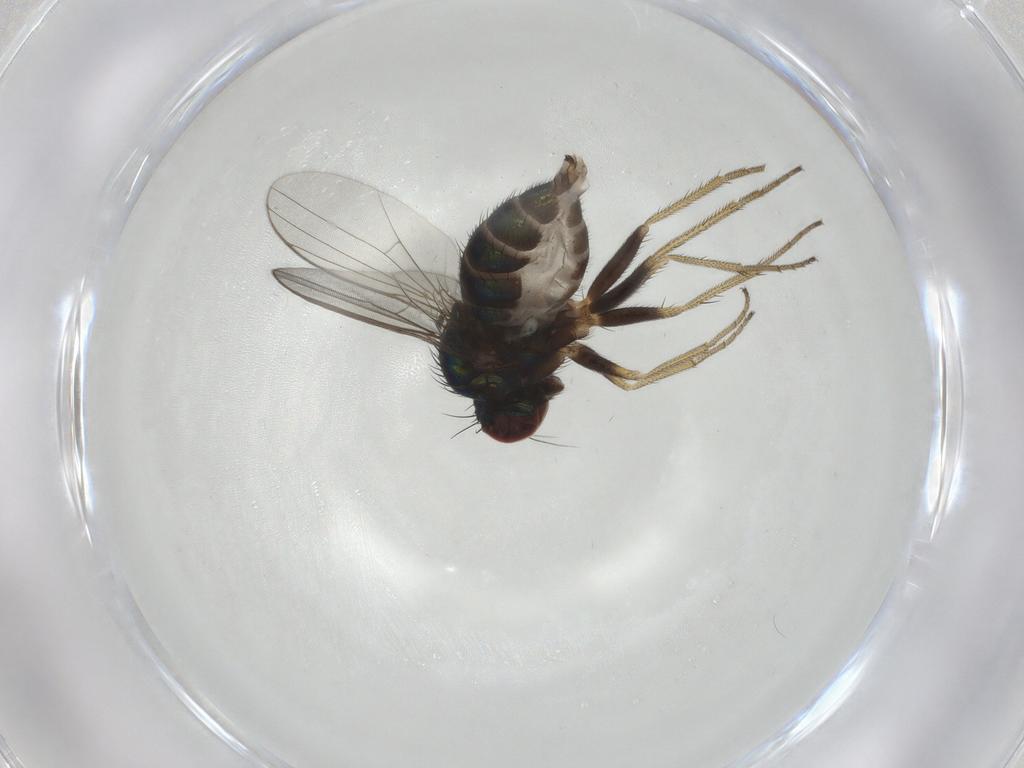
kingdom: Animalia
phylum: Arthropoda
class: Insecta
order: Diptera
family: Dolichopodidae
